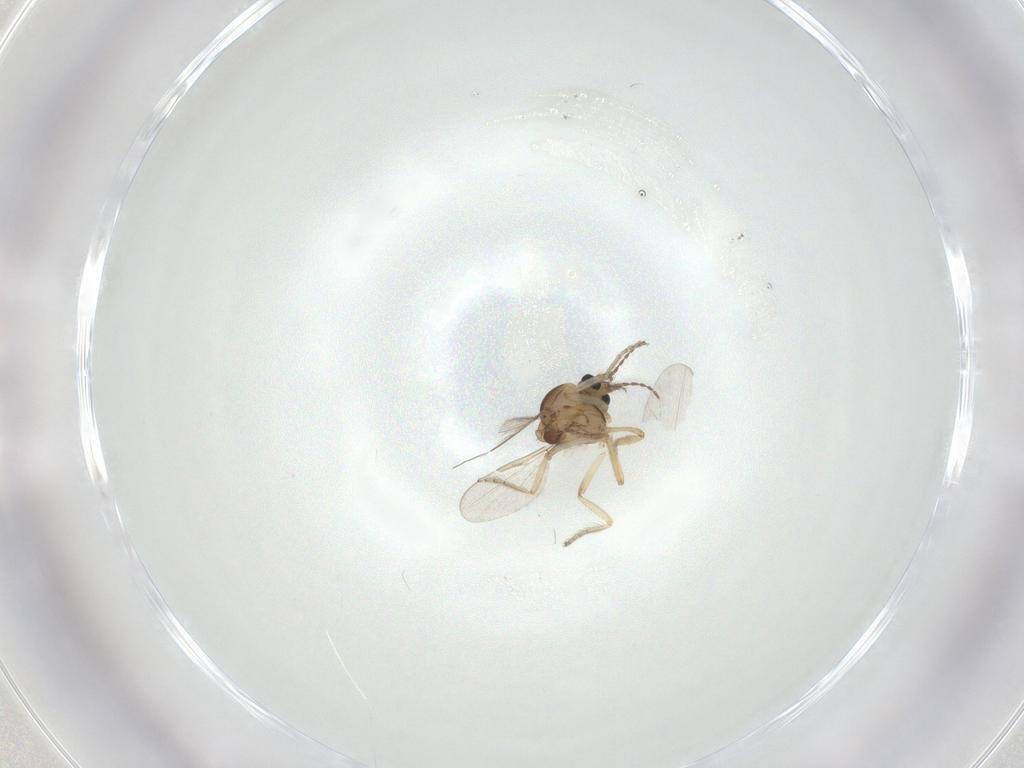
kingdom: Animalia
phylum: Arthropoda
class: Insecta
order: Diptera
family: Ceratopogonidae
